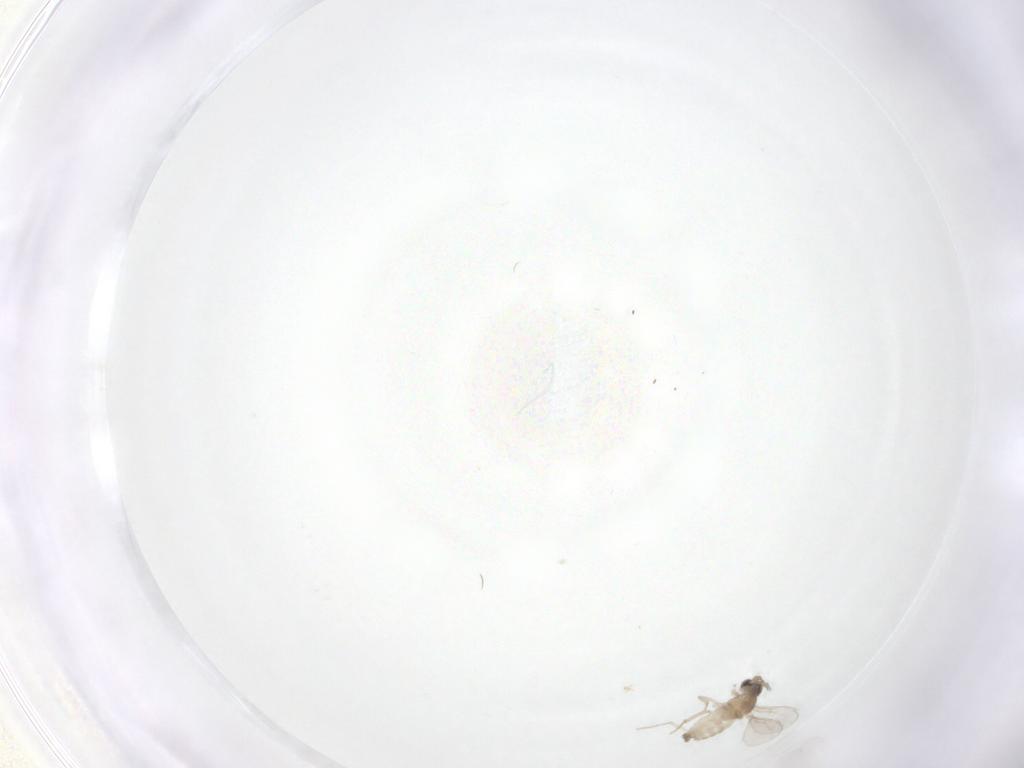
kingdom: Animalia
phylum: Arthropoda
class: Insecta
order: Diptera
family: Cecidomyiidae
